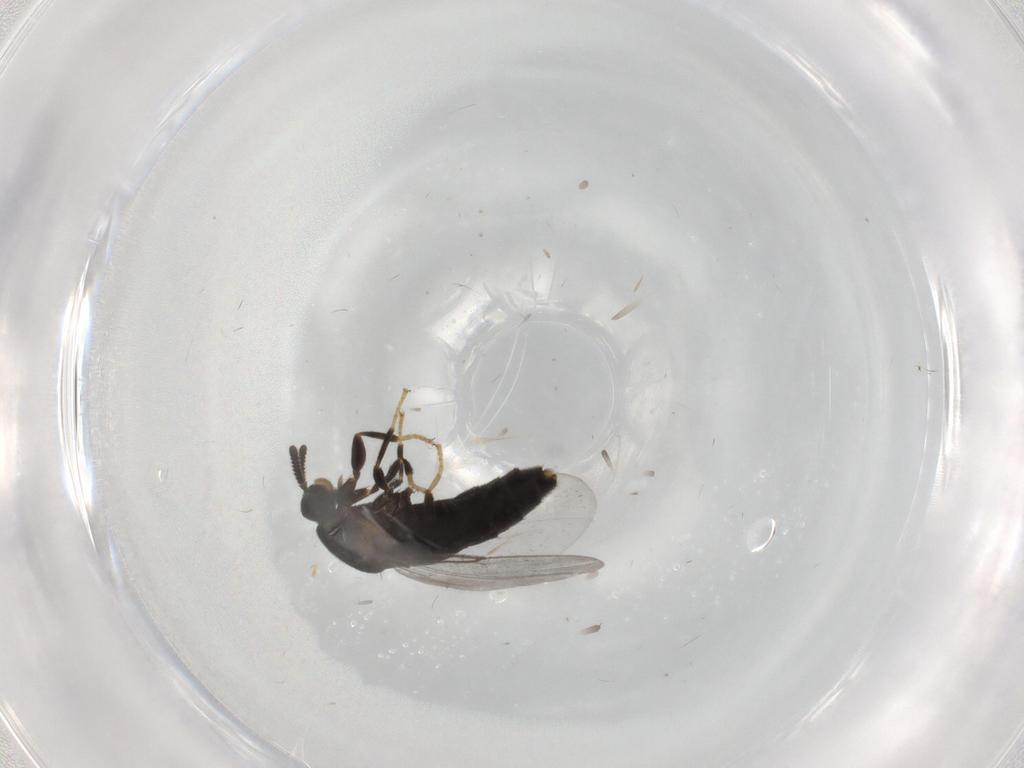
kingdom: Animalia
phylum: Arthropoda
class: Insecta
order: Diptera
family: Scatopsidae
